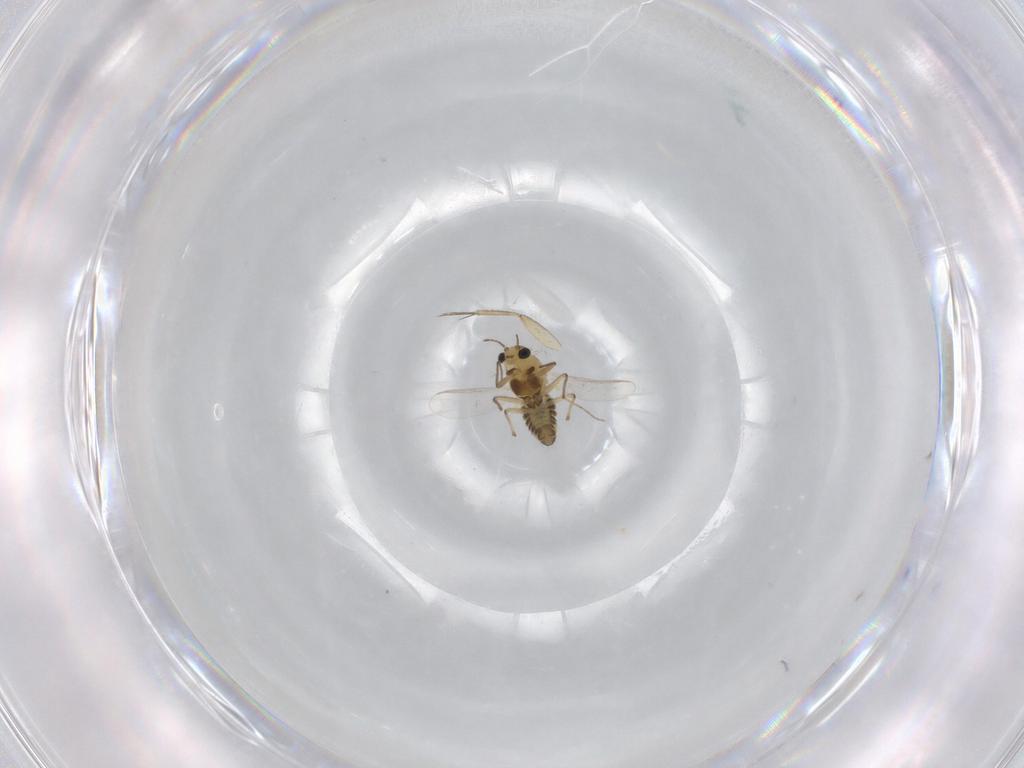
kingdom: Animalia
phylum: Arthropoda
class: Insecta
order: Diptera
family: Chironomidae
